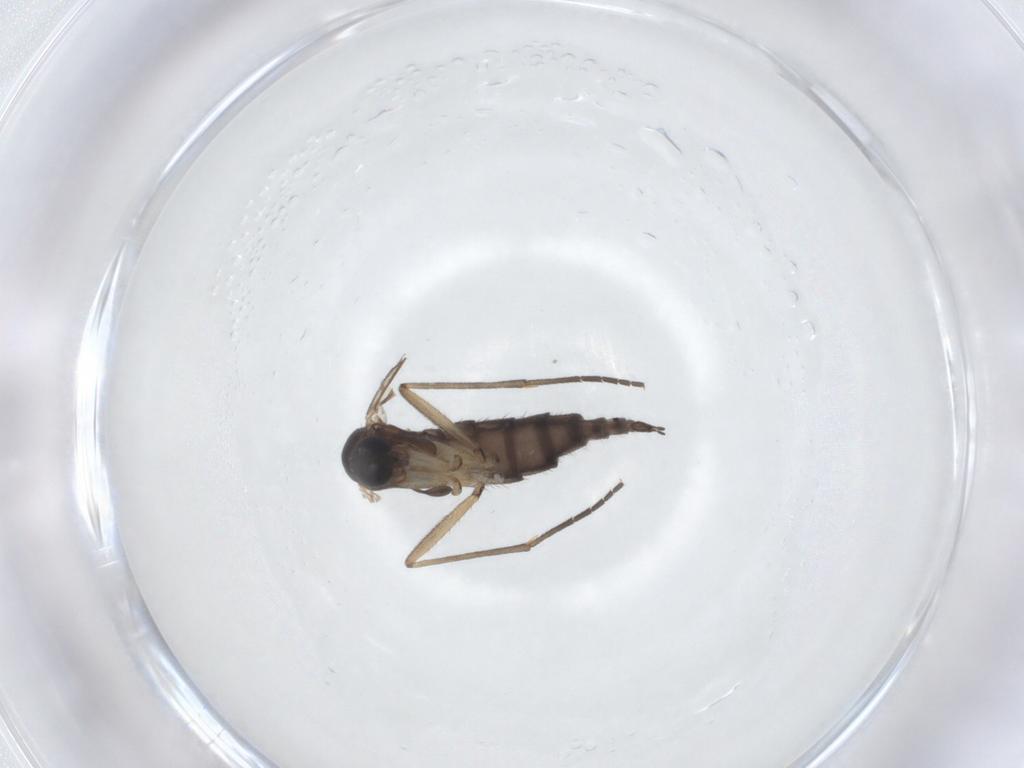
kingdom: Animalia
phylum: Arthropoda
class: Insecta
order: Diptera
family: Sciaridae
